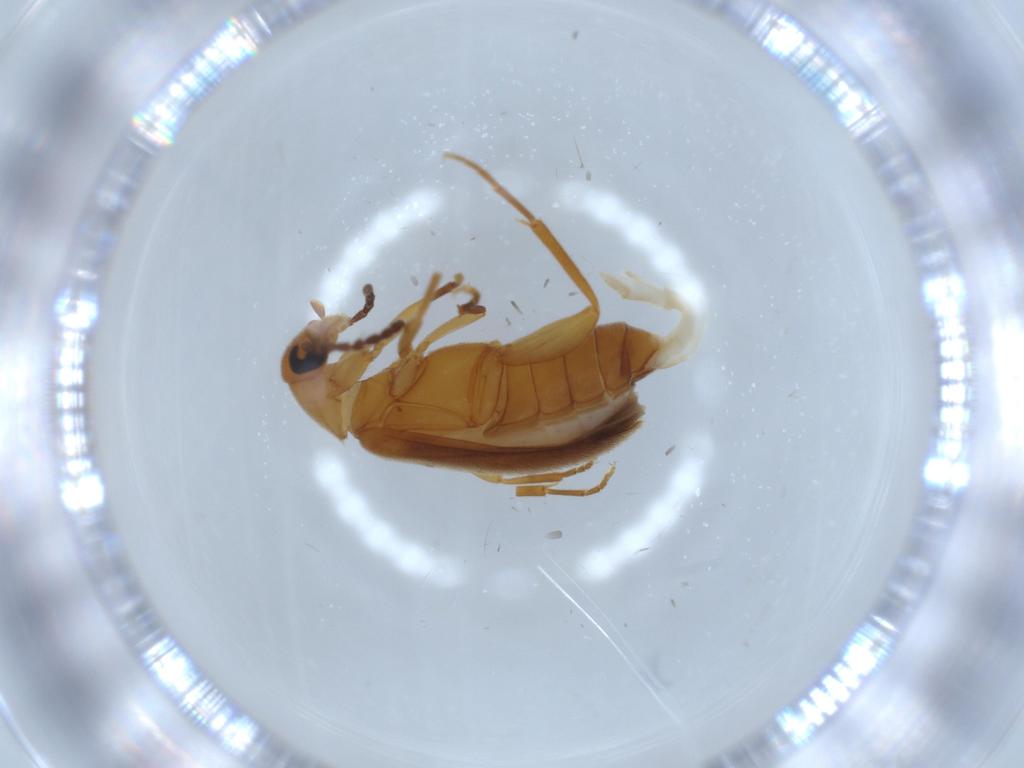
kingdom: Animalia
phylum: Arthropoda
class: Insecta
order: Coleoptera
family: Scraptiidae
